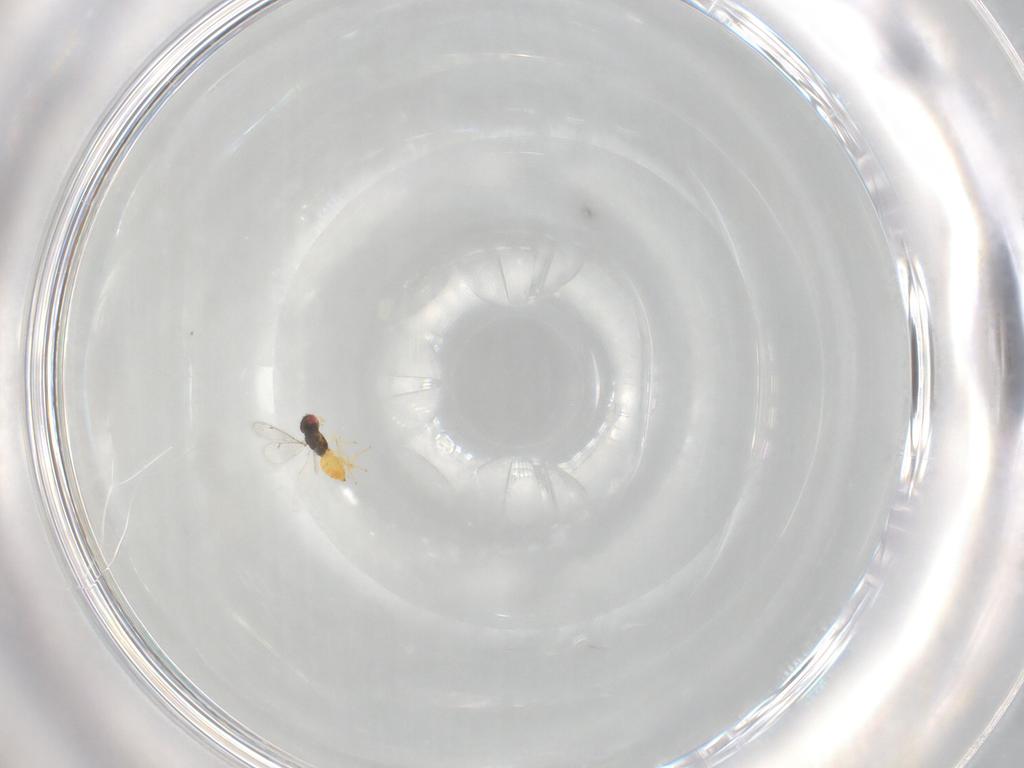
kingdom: Animalia
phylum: Arthropoda
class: Insecta
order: Hymenoptera
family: Eulophidae
